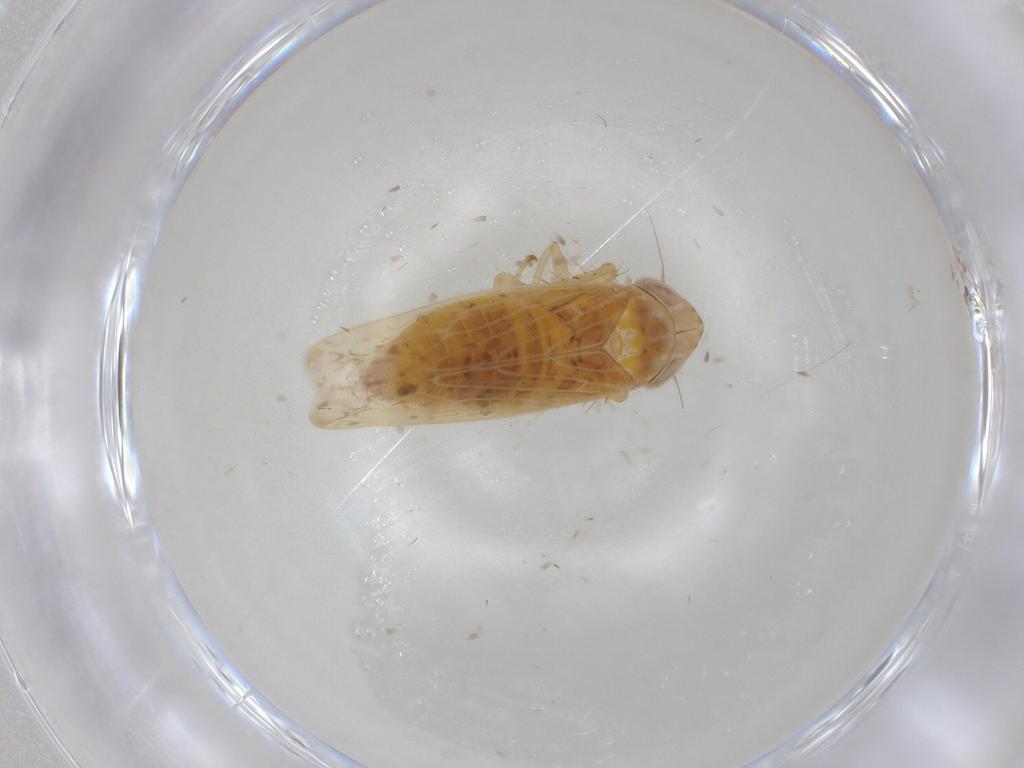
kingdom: Animalia
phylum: Arthropoda
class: Insecta
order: Hemiptera
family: Cicadellidae
